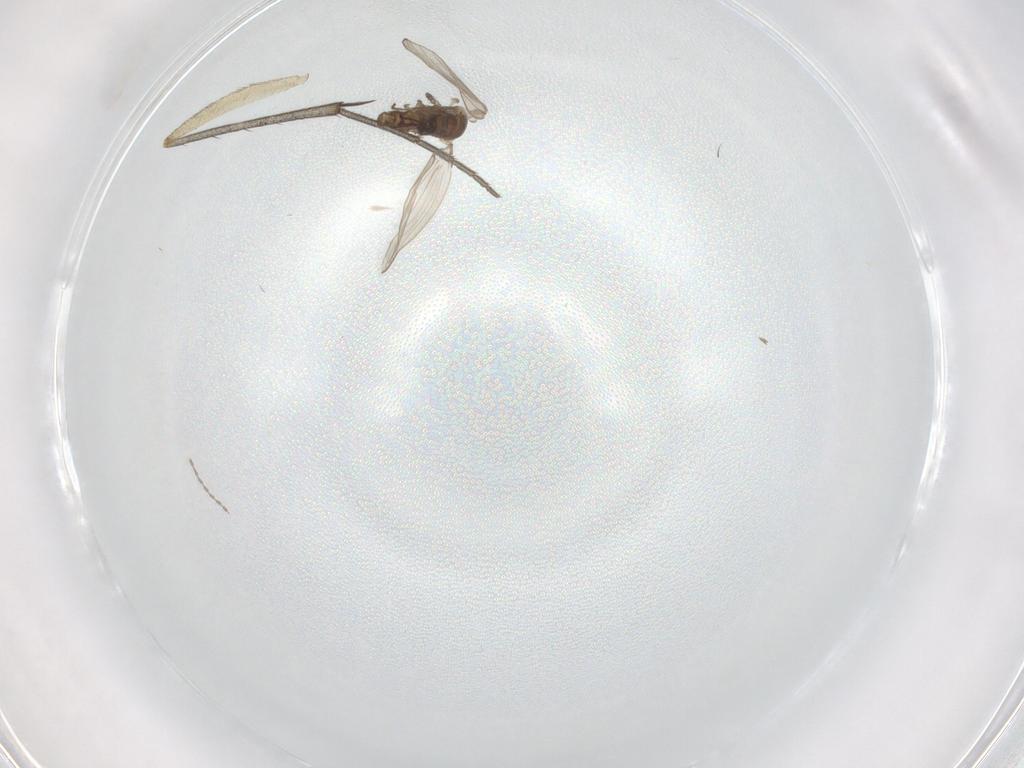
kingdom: Animalia
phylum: Arthropoda
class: Insecta
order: Diptera
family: Psychodidae
